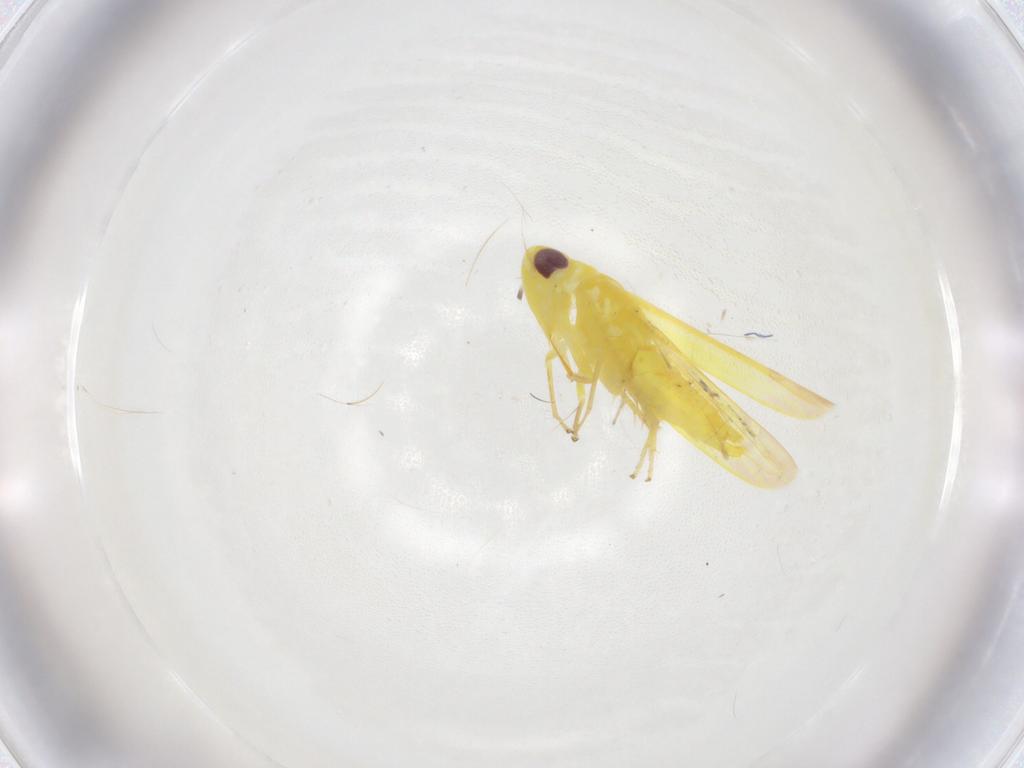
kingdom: Animalia
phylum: Arthropoda
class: Insecta
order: Hemiptera
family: Cicadellidae
